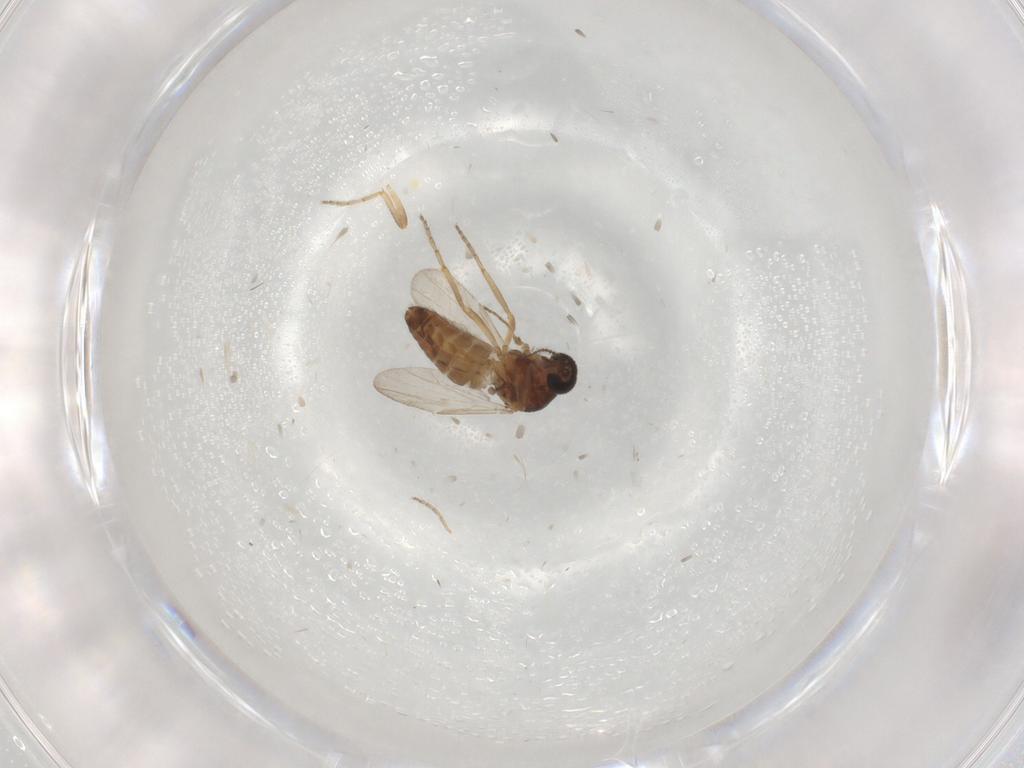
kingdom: Animalia
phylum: Arthropoda
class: Insecta
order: Diptera
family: Ceratopogonidae
